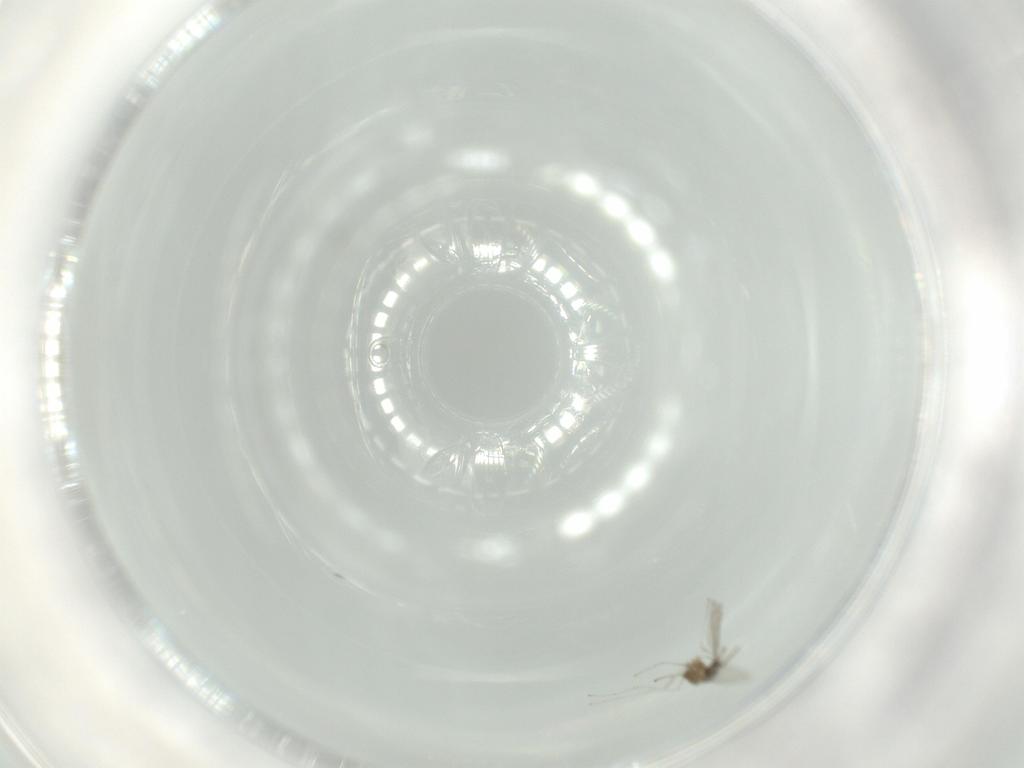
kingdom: Animalia
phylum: Arthropoda
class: Insecta
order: Diptera
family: Cecidomyiidae
